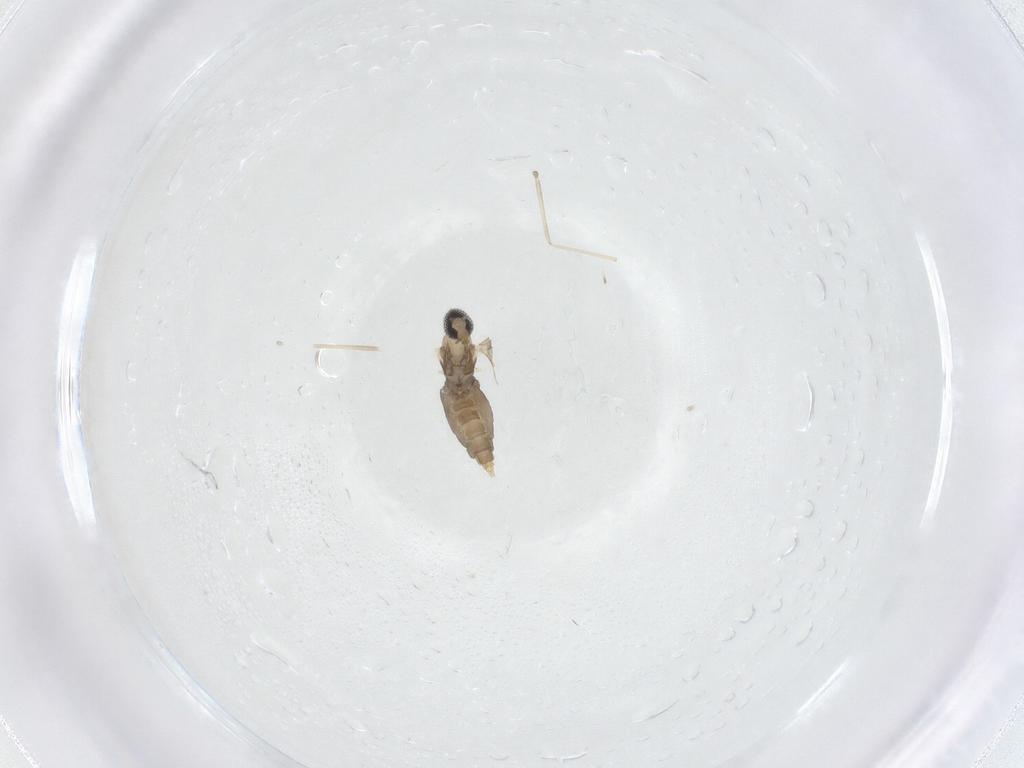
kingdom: Animalia
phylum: Arthropoda
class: Insecta
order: Diptera
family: Cecidomyiidae
